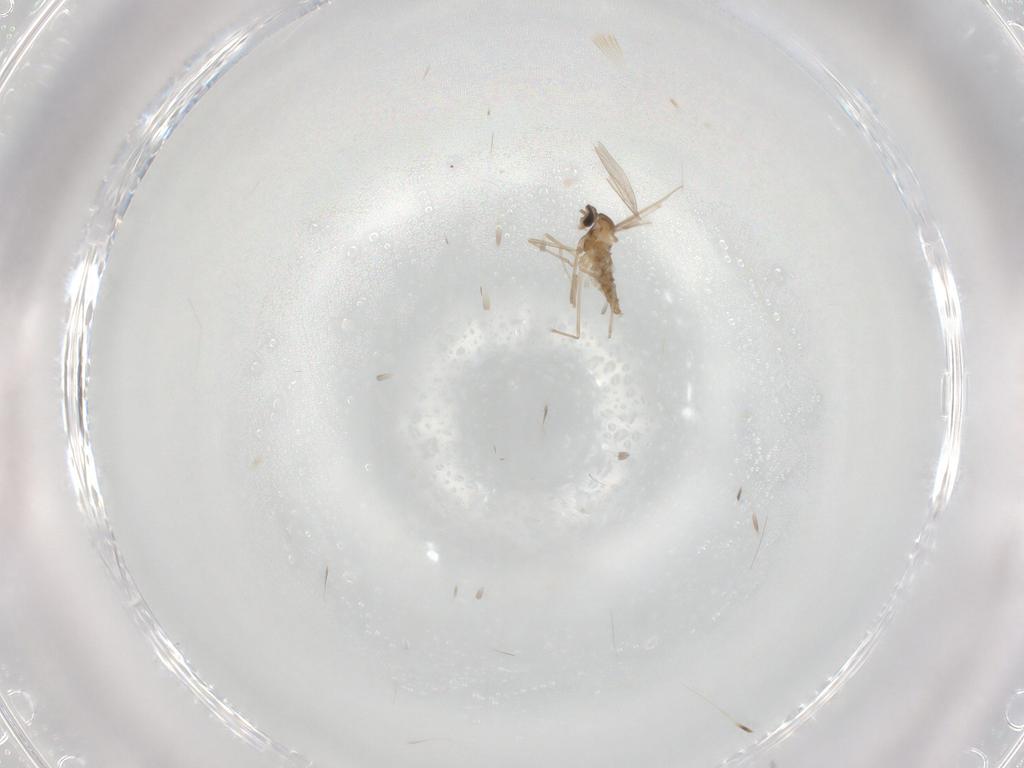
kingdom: Animalia
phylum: Arthropoda
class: Insecta
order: Diptera
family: Cecidomyiidae
